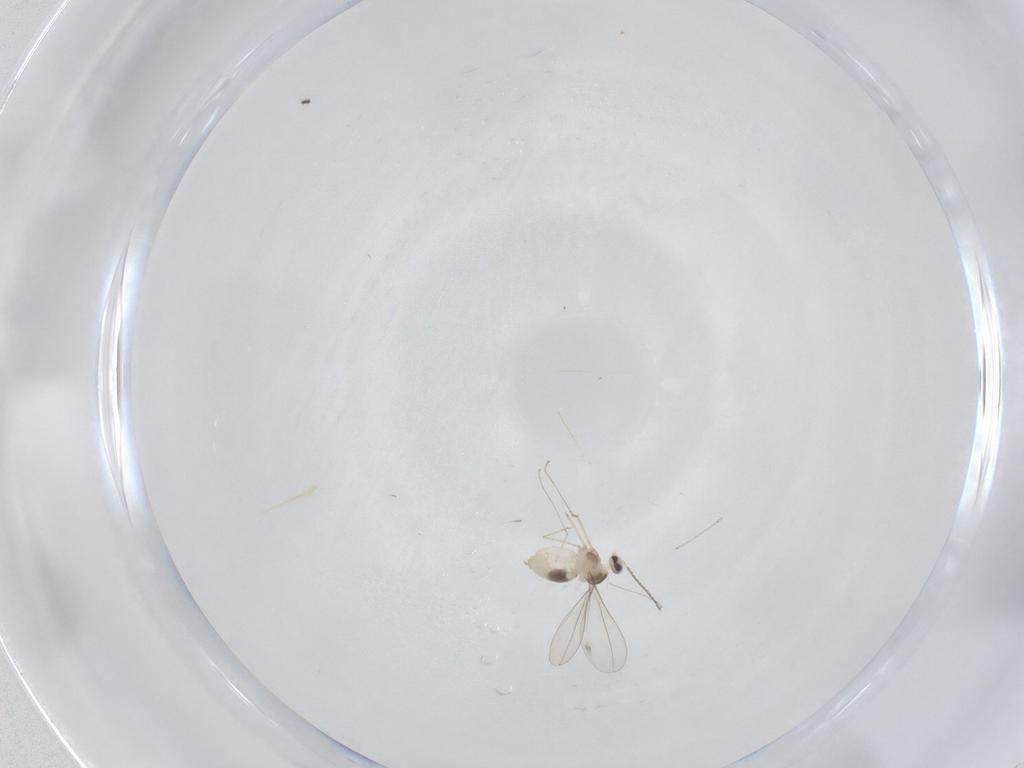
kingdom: Animalia
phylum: Arthropoda
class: Insecta
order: Diptera
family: Cecidomyiidae
